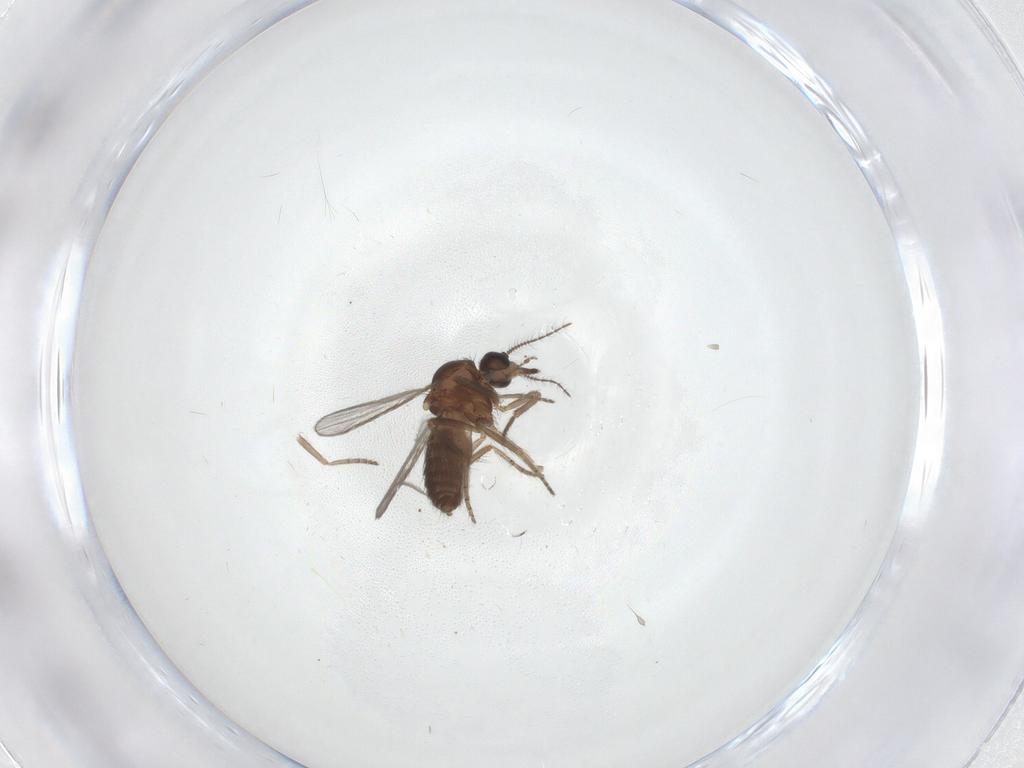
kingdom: Animalia
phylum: Arthropoda
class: Insecta
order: Diptera
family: Ceratopogonidae
